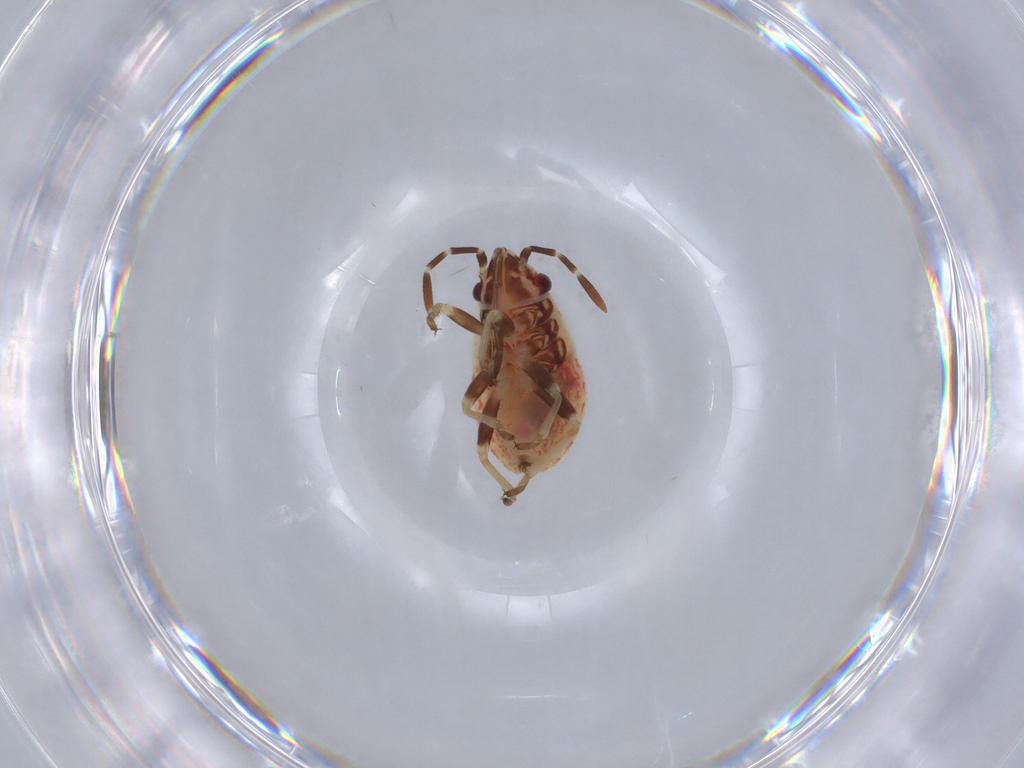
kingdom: Animalia
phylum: Arthropoda
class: Insecta
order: Hemiptera
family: Lygaeidae
